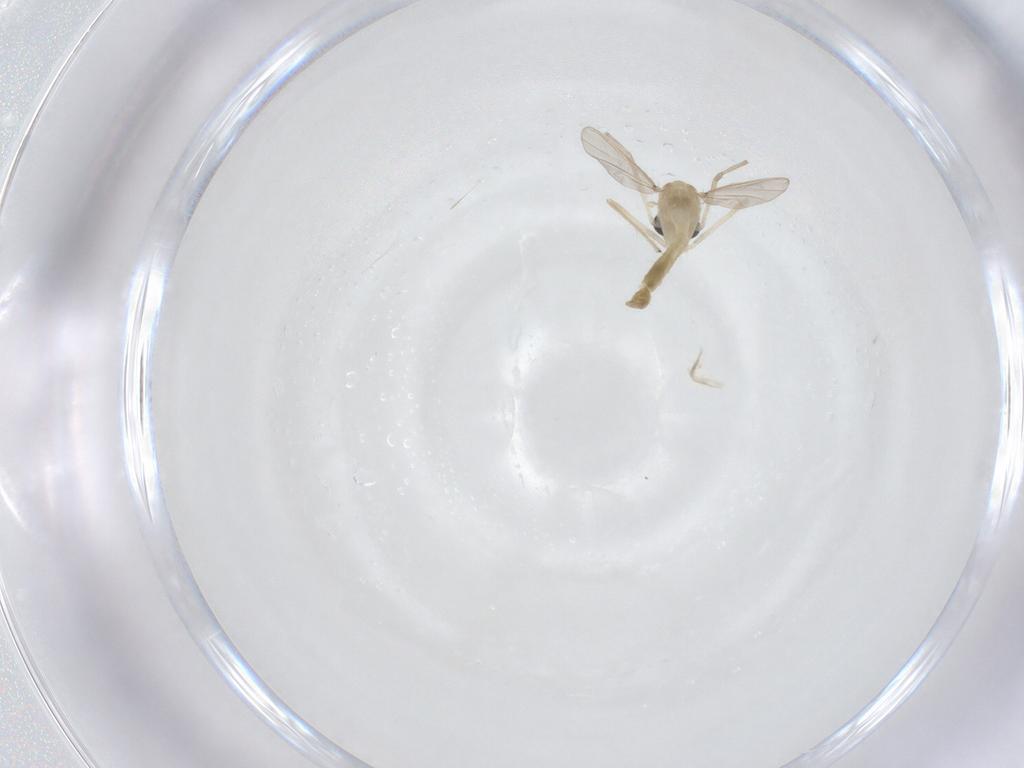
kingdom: Animalia
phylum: Arthropoda
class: Insecta
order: Diptera
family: Chironomidae
